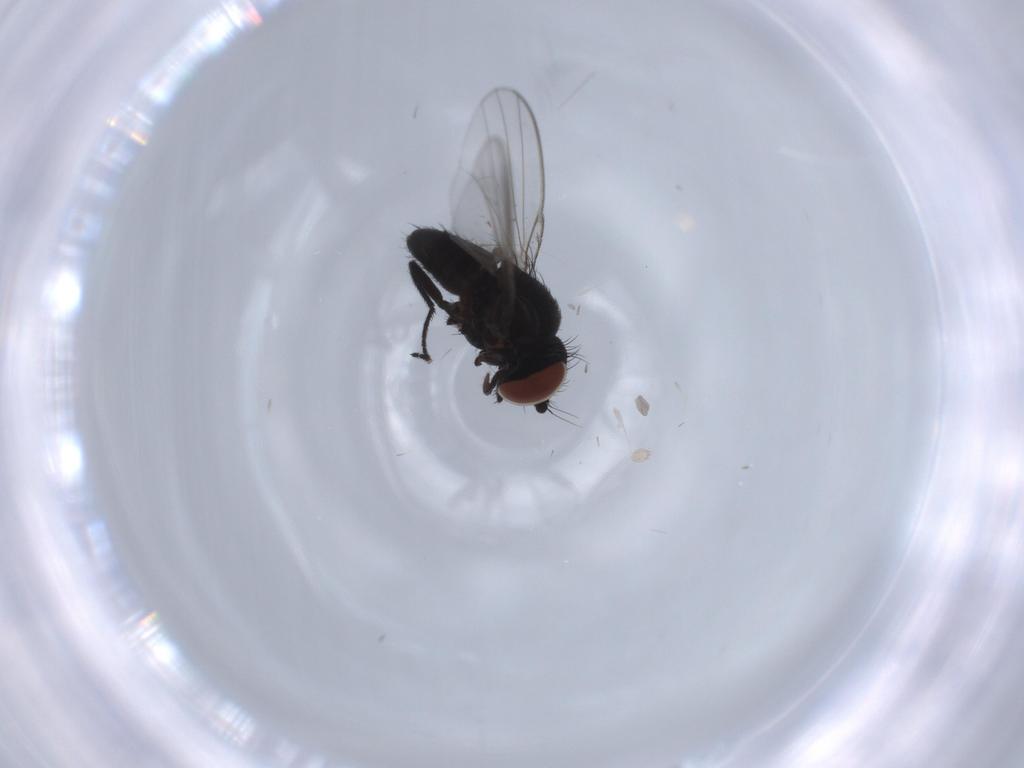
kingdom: Animalia
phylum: Arthropoda
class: Insecta
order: Diptera
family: Milichiidae
